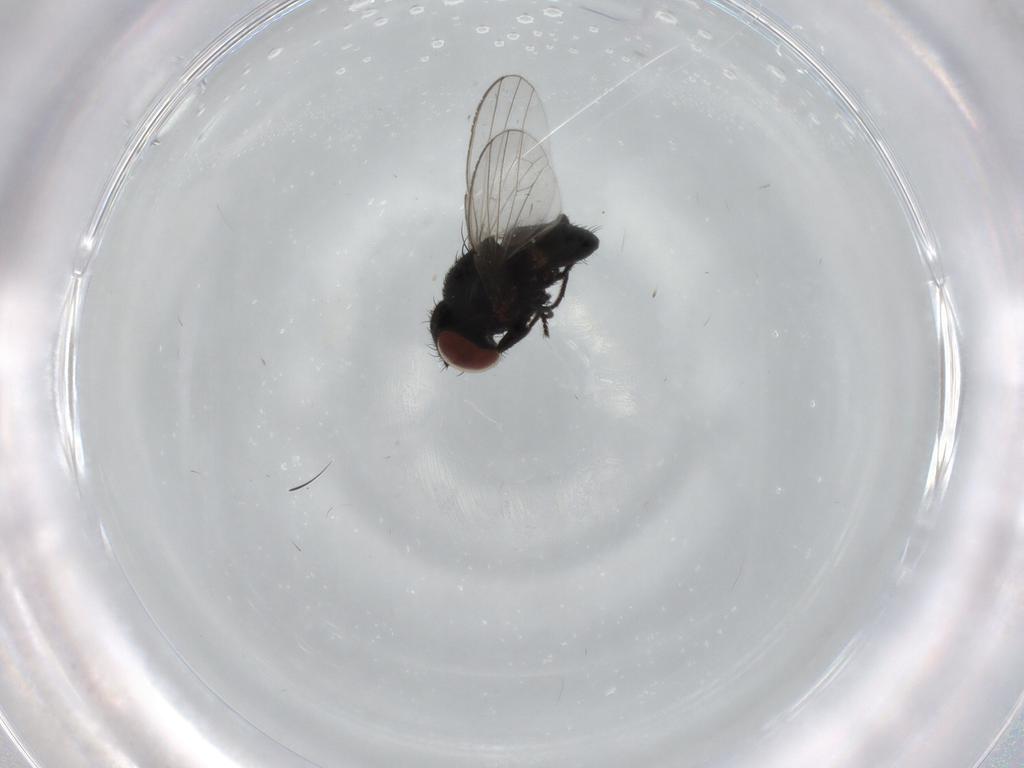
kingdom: Animalia
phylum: Arthropoda
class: Insecta
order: Diptera
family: Milichiidae
